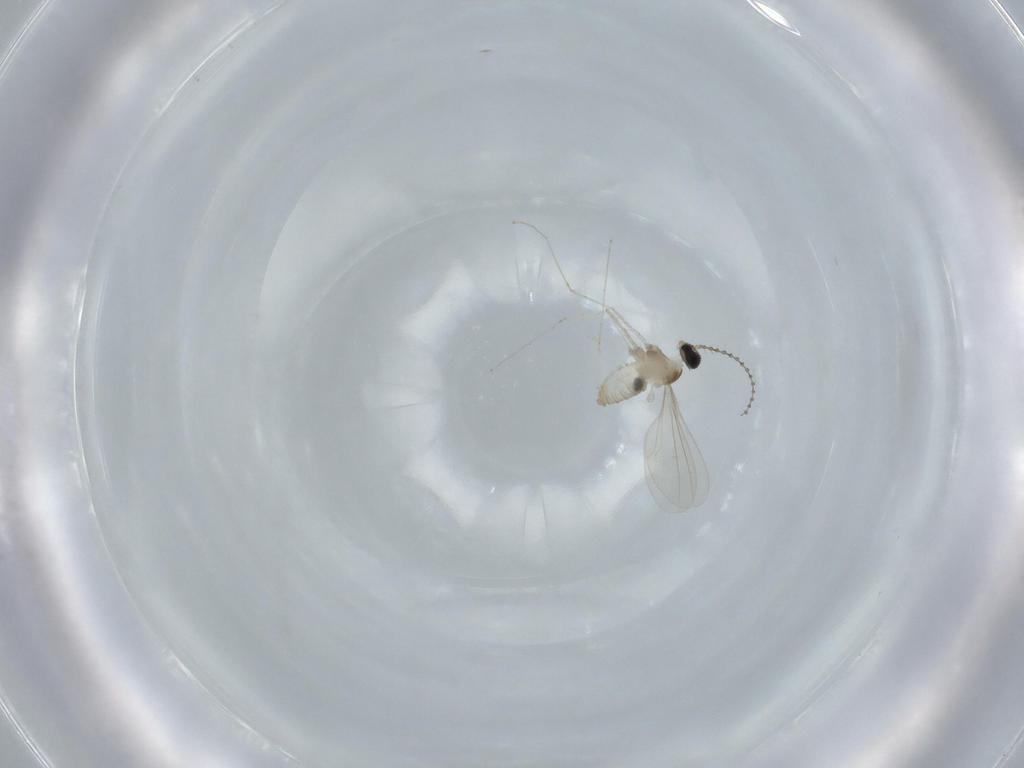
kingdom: Animalia
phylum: Arthropoda
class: Insecta
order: Diptera
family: Cecidomyiidae
